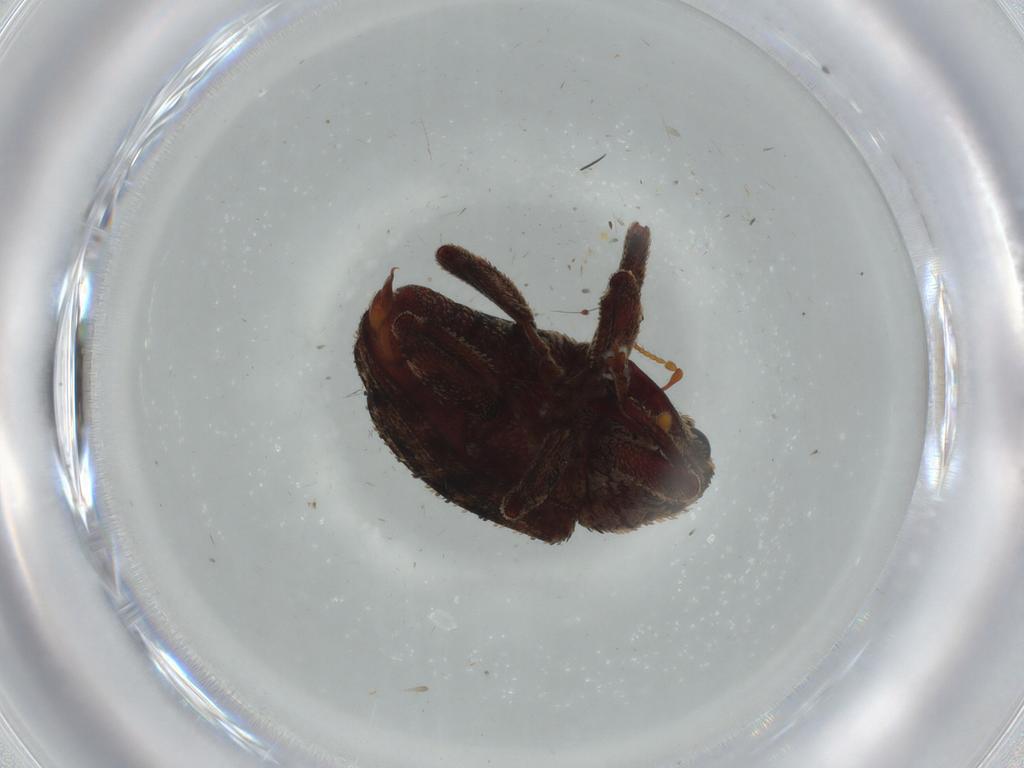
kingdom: Animalia
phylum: Arthropoda
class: Insecta
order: Coleoptera
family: Curculionidae
